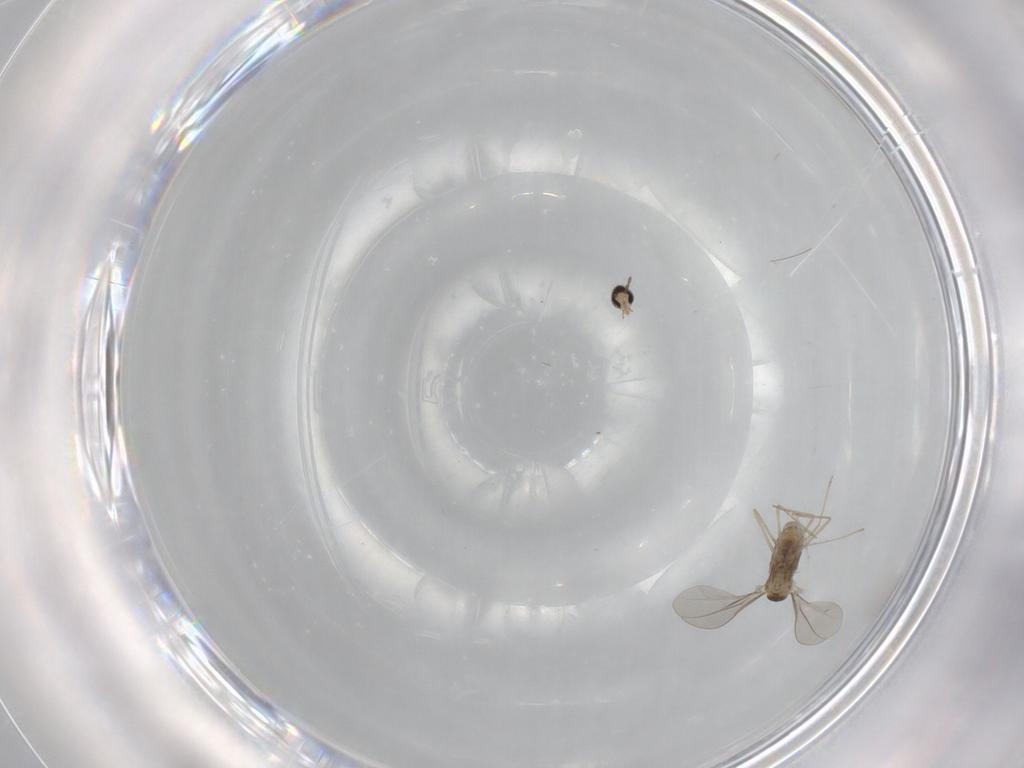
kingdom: Animalia
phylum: Arthropoda
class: Insecta
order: Diptera
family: Cecidomyiidae
